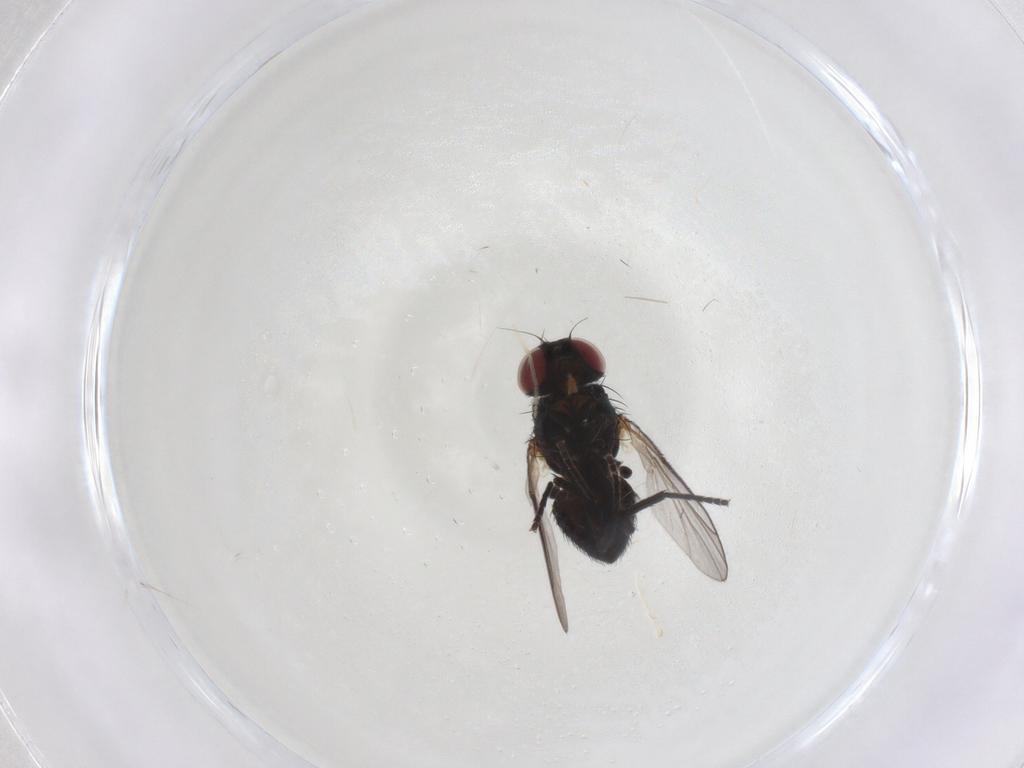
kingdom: Animalia
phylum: Arthropoda
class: Insecta
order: Diptera
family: Agromyzidae
